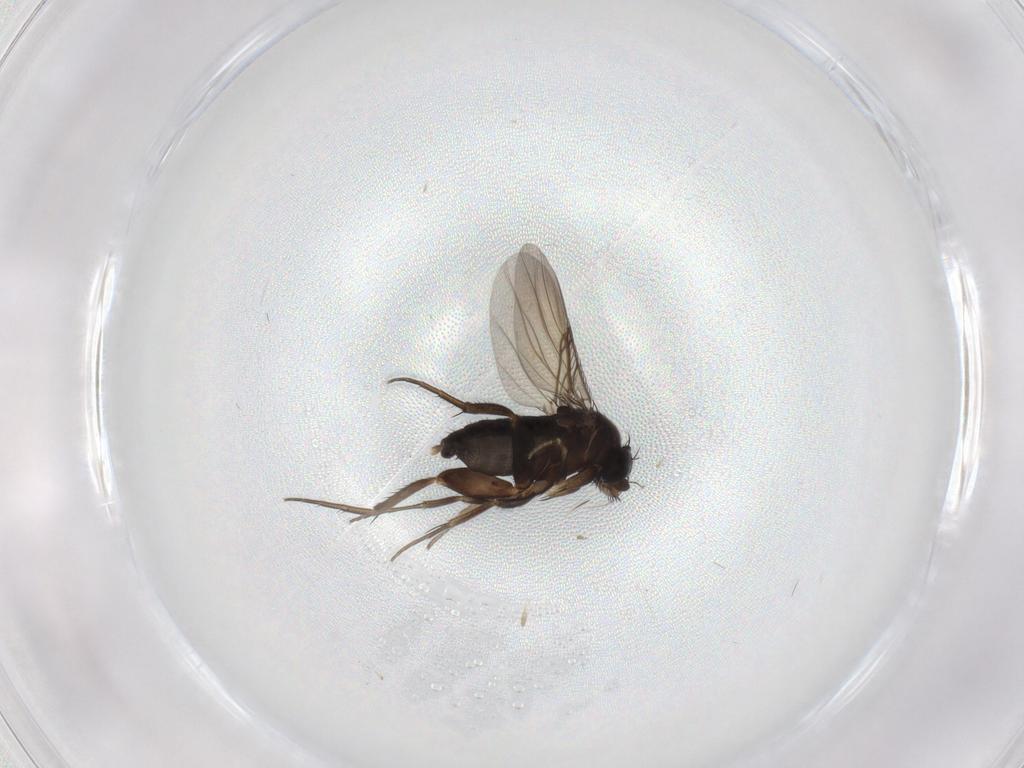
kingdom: Animalia
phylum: Arthropoda
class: Insecta
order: Diptera
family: Phoridae
